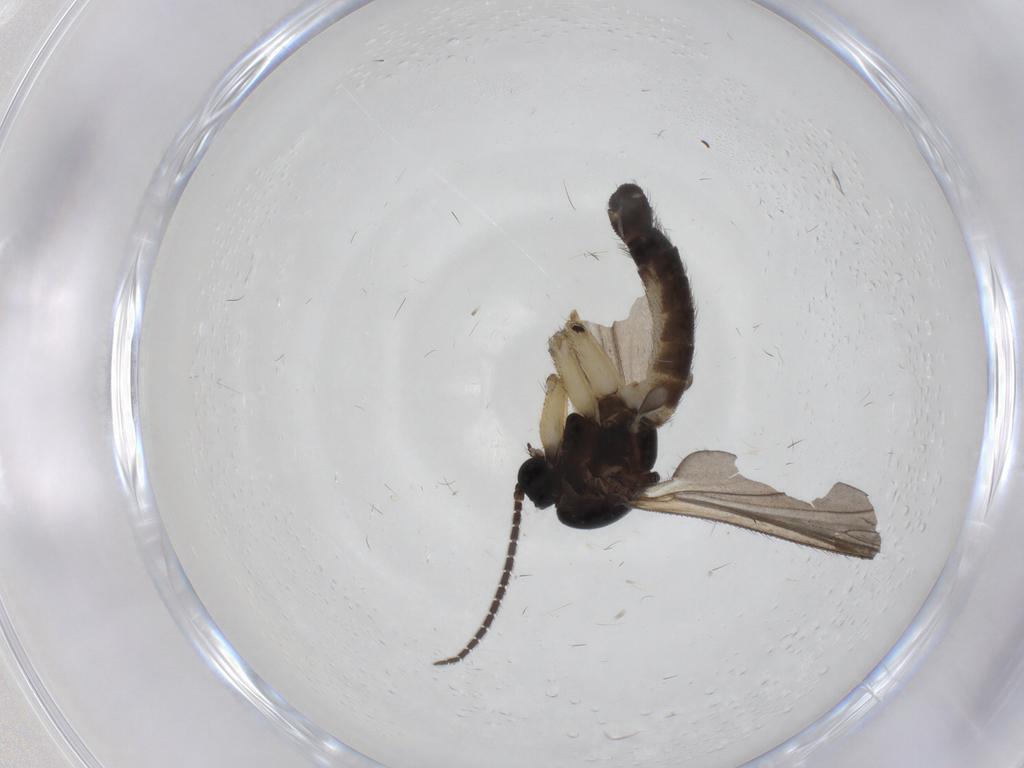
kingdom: Animalia
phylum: Arthropoda
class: Insecta
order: Diptera
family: Sciaridae
